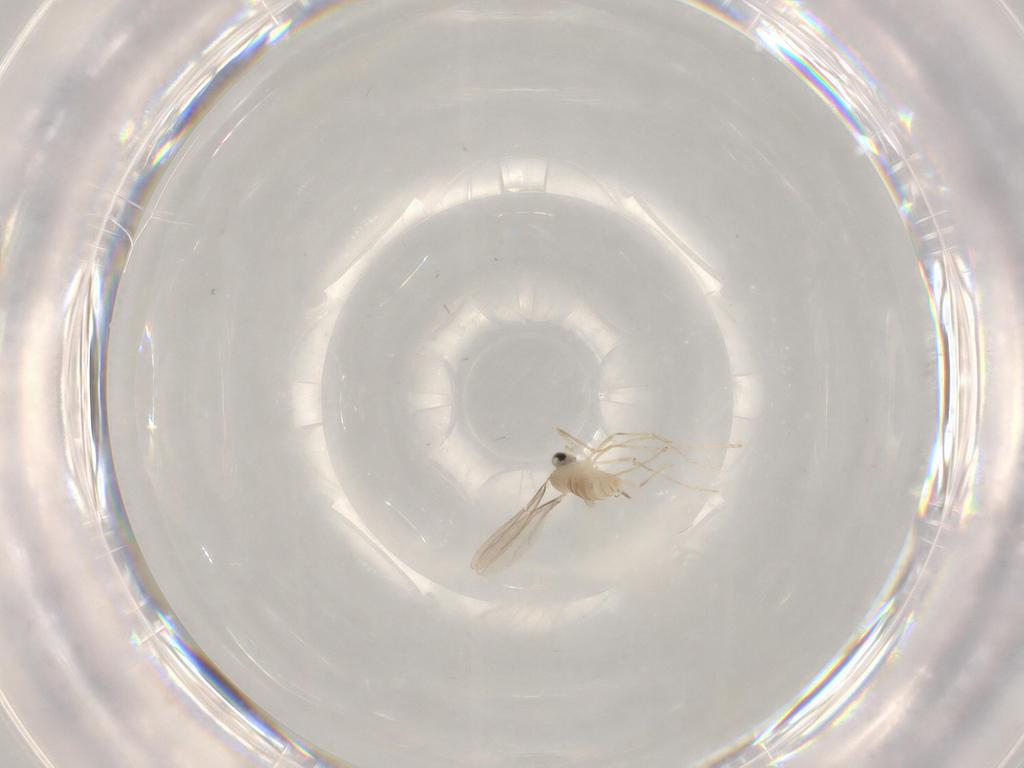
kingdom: Animalia
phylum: Arthropoda
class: Insecta
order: Diptera
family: Cecidomyiidae
